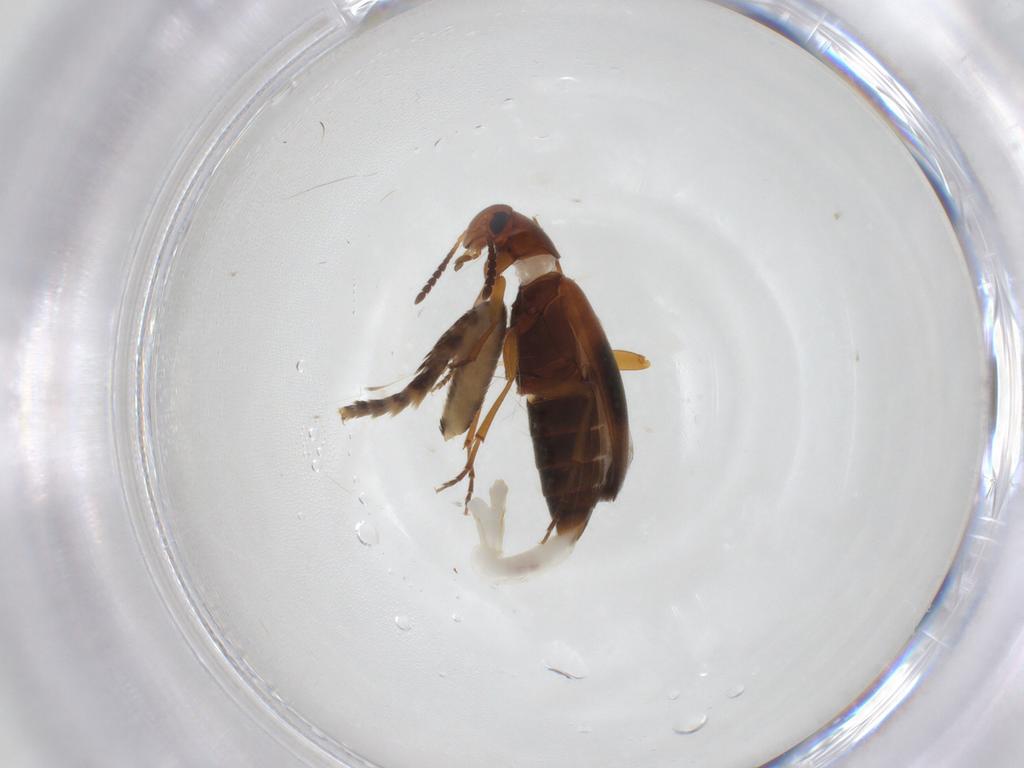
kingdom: Animalia
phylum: Arthropoda
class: Insecta
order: Coleoptera
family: Scraptiidae
